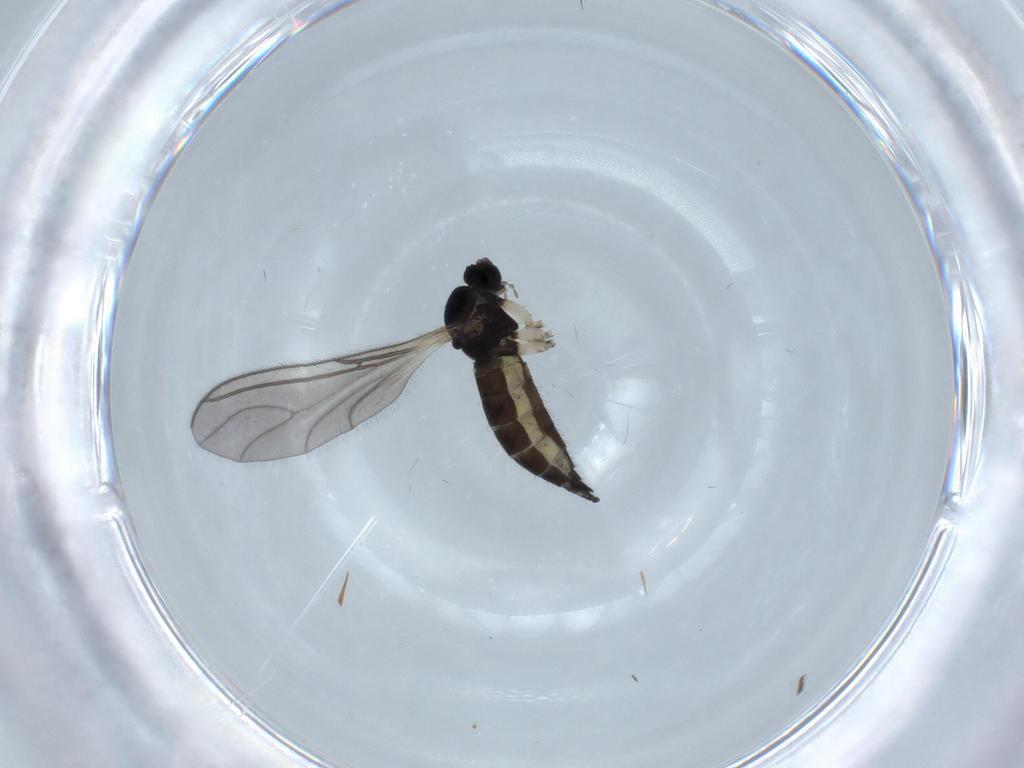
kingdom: Animalia
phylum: Arthropoda
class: Insecta
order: Diptera
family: Sciaridae
